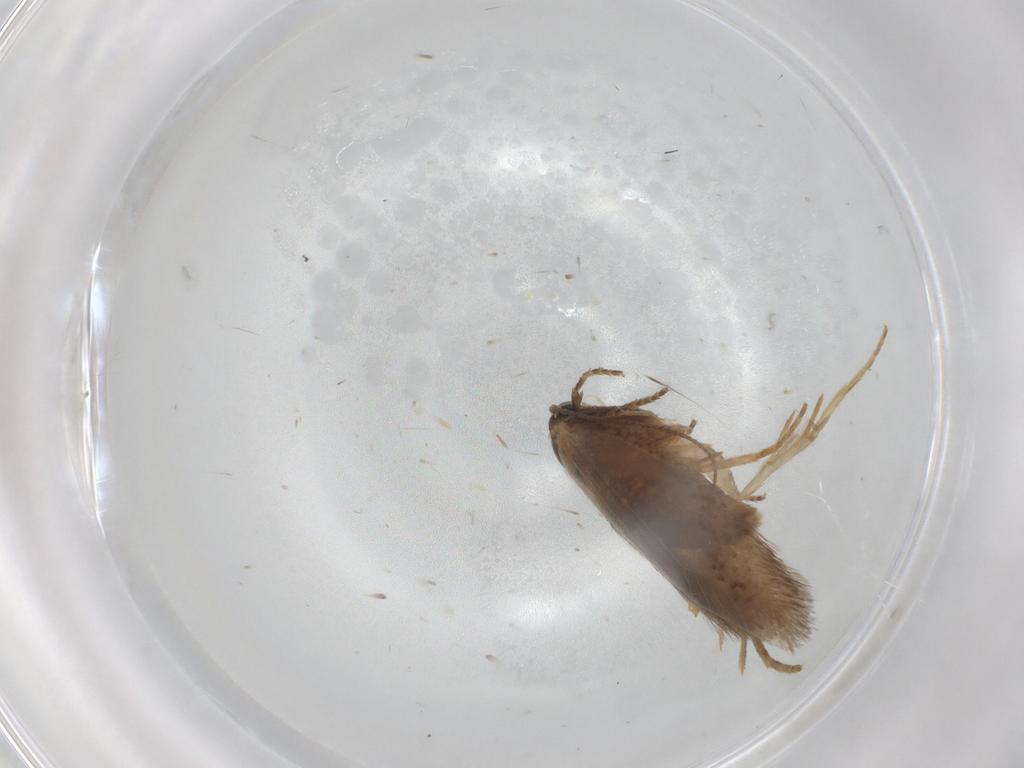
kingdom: Animalia
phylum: Arthropoda
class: Insecta
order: Lepidoptera
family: Nepticulidae
